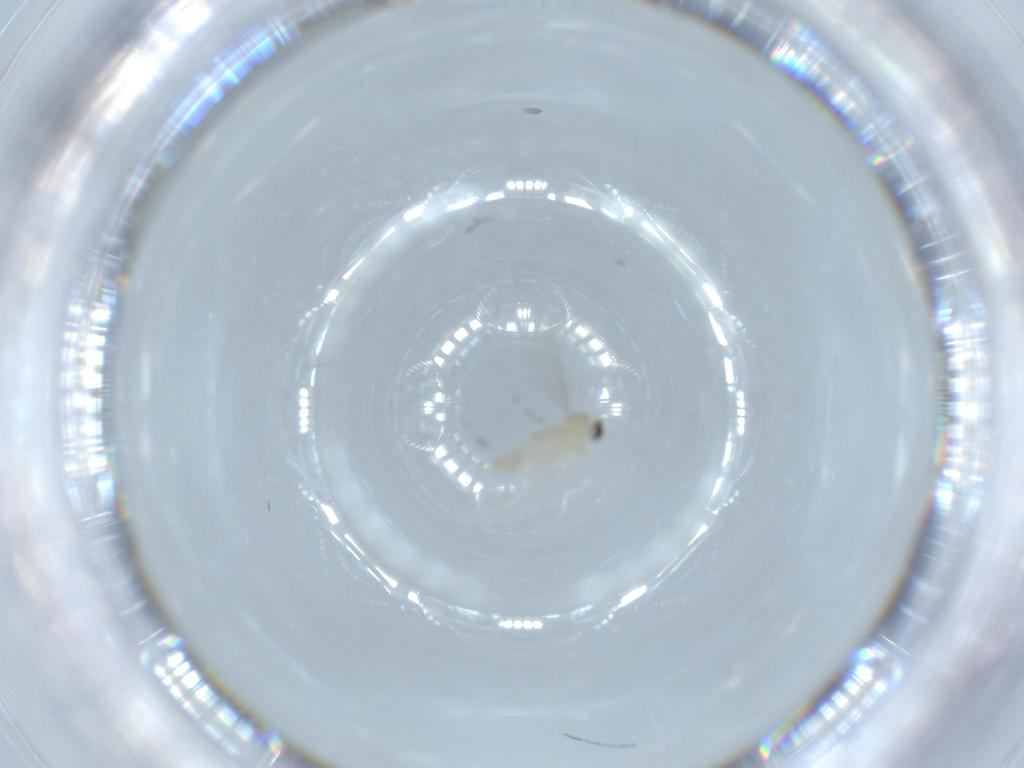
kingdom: Animalia
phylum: Arthropoda
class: Insecta
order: Diptera
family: Cecidomyiidae
